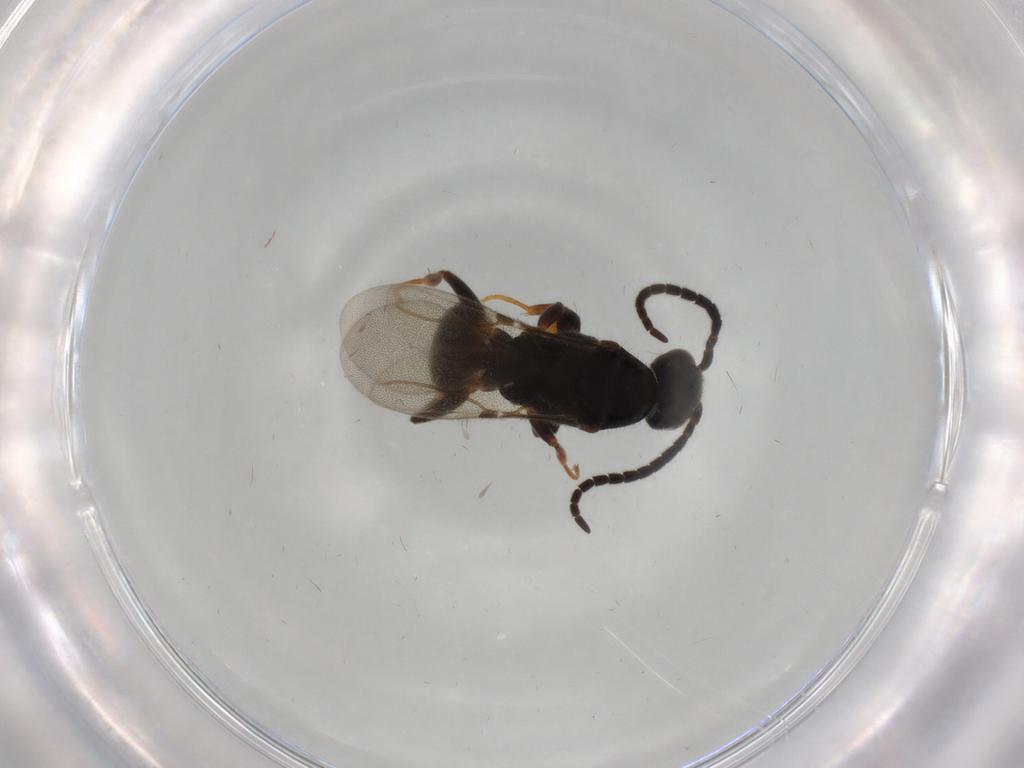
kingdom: Animalia
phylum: Arthropoda
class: Insecta
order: Hymenoptera
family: Bethylidae
